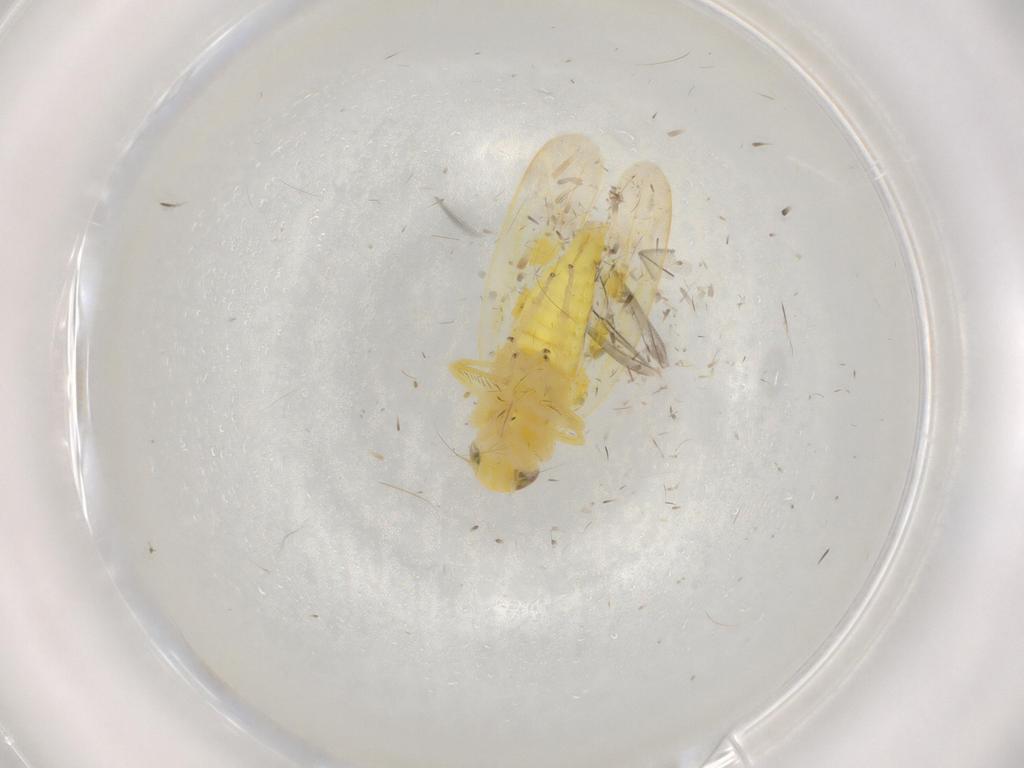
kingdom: Animalia
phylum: Arthropoda
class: Insecta
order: Hemiptera
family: Cicadellidae
